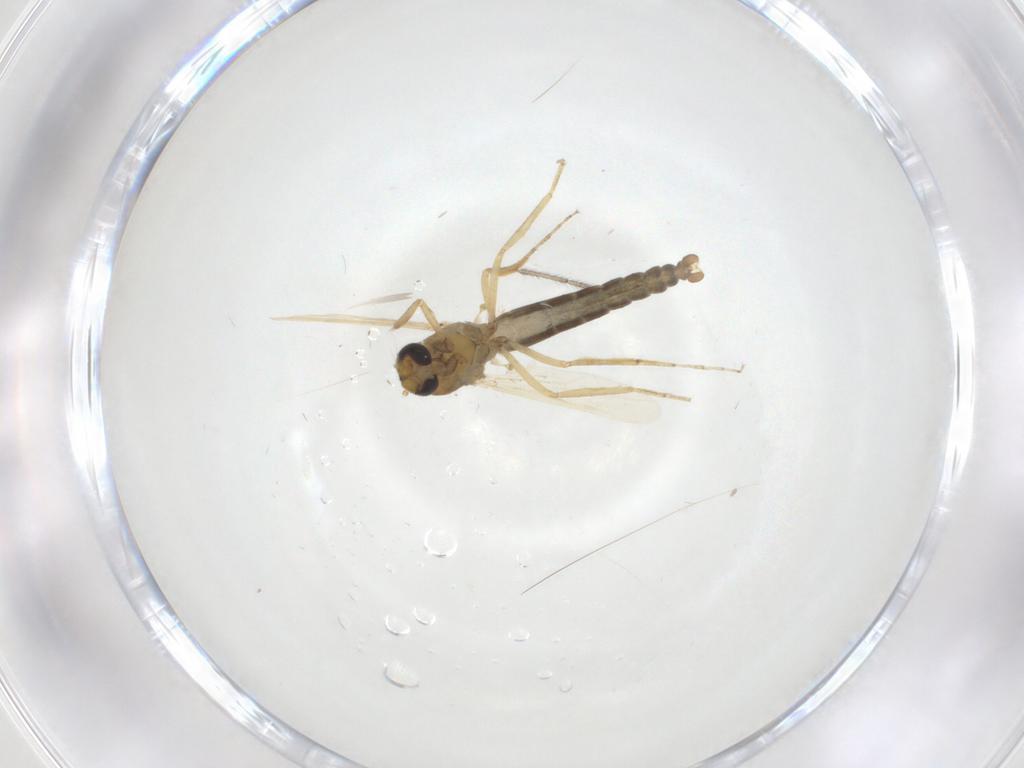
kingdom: Animalia
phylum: Arthropoda
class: Insecta
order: Diptera
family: Ceratopogonidae
